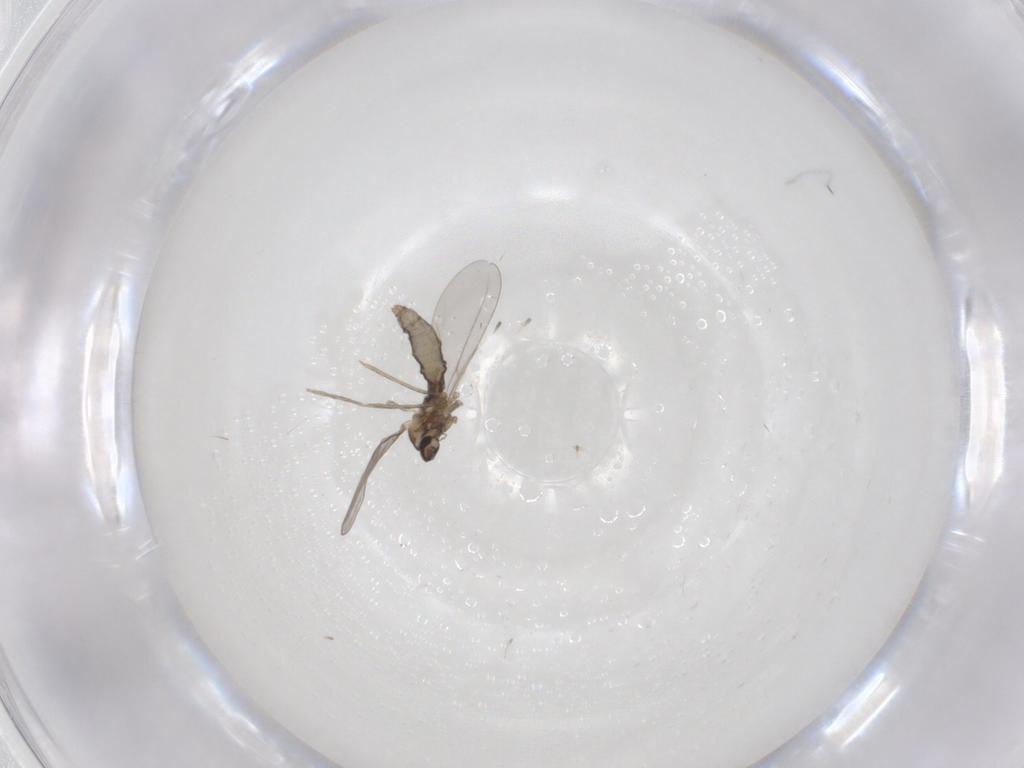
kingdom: Animalia
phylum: Arthropoda
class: Insecta
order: Diptera
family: Cecidomyiidae
